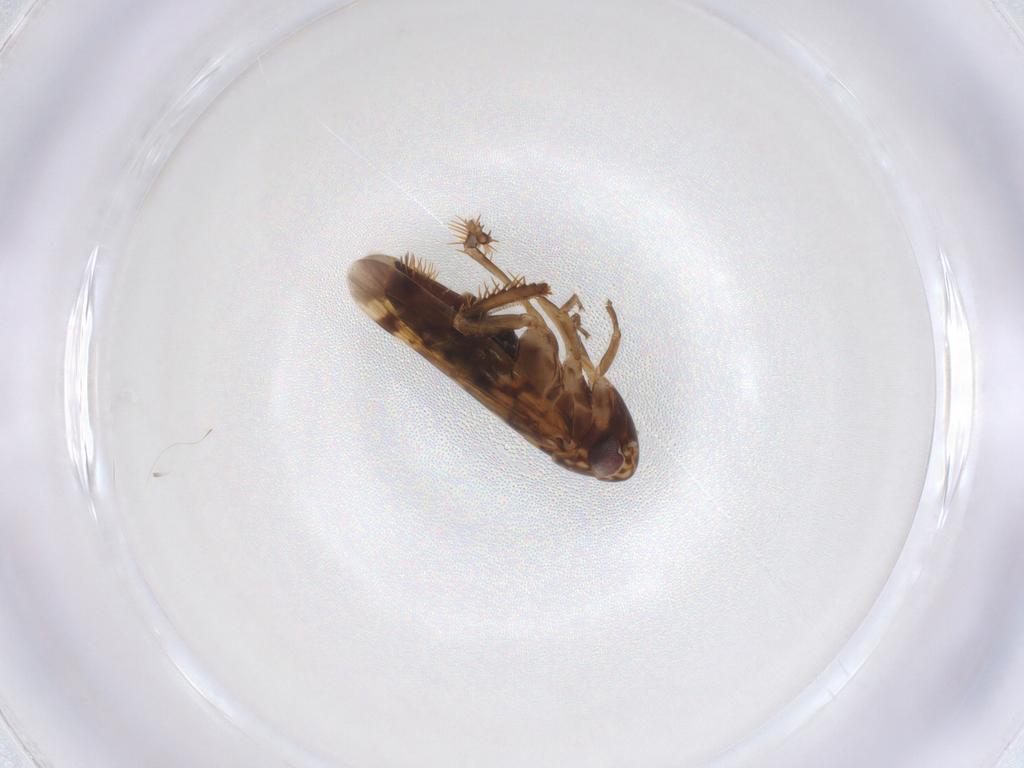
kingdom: Animalia
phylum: Arthropoda
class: Insecta
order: Hemiptera
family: Cicadellidae
